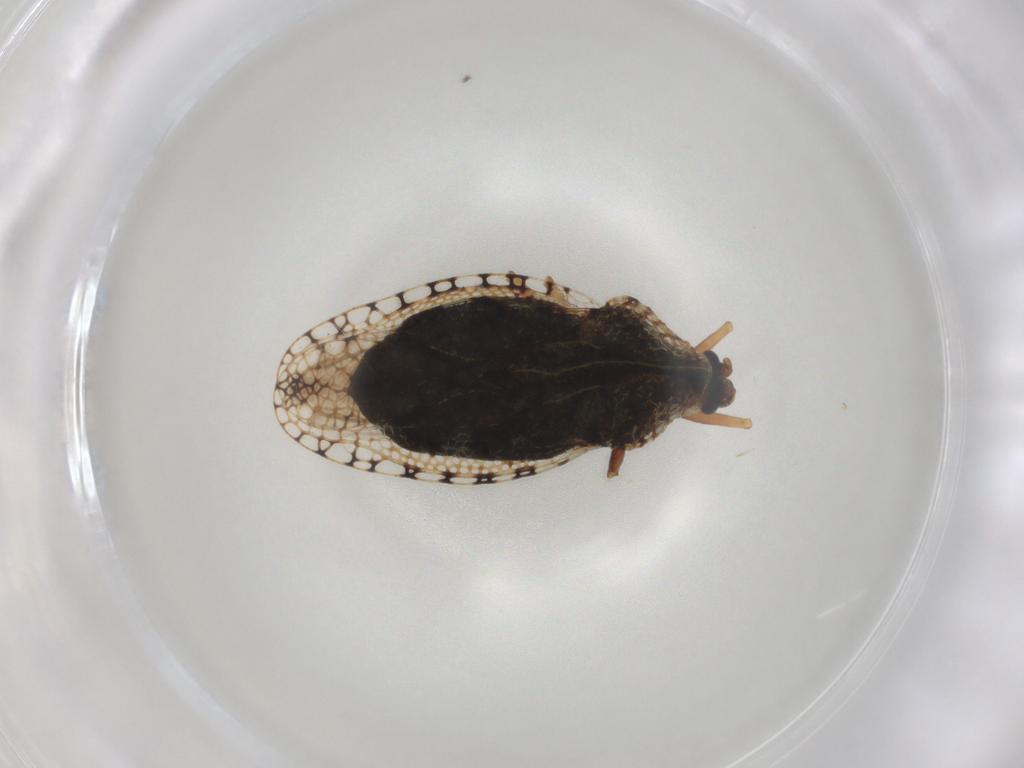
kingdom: Animalia
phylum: Arthropoda
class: Insecta
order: Hemiptera
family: Tingidae
